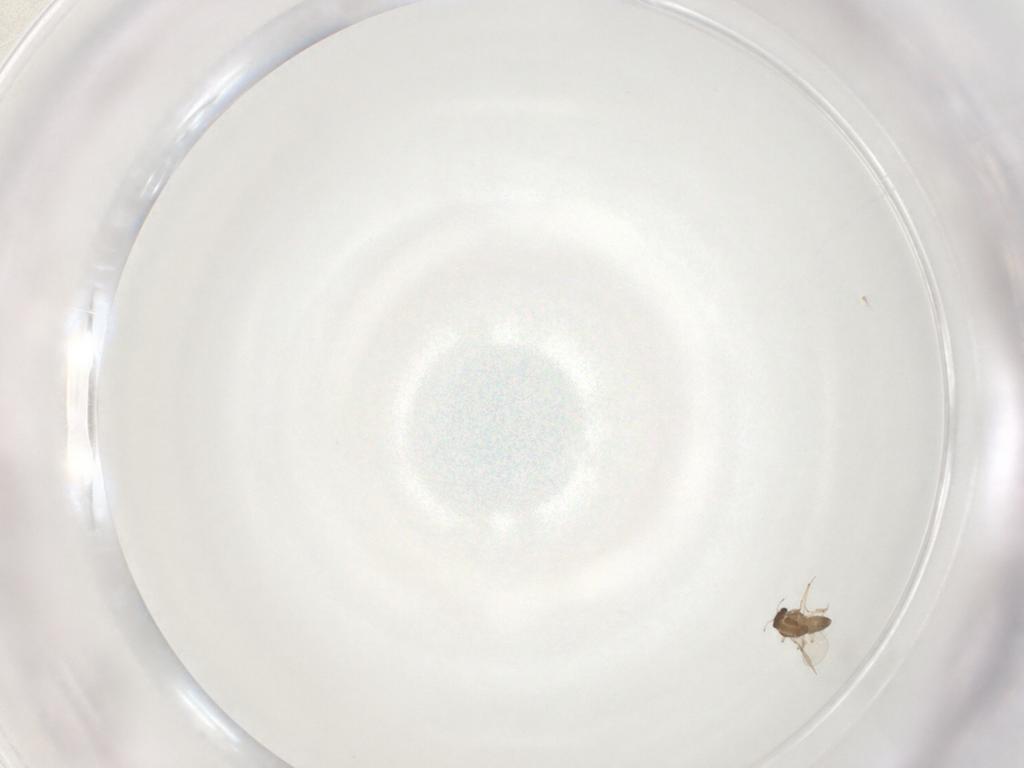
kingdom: Animalia
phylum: Arthropoda
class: Insecta
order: Diptera
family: Chironomidae
